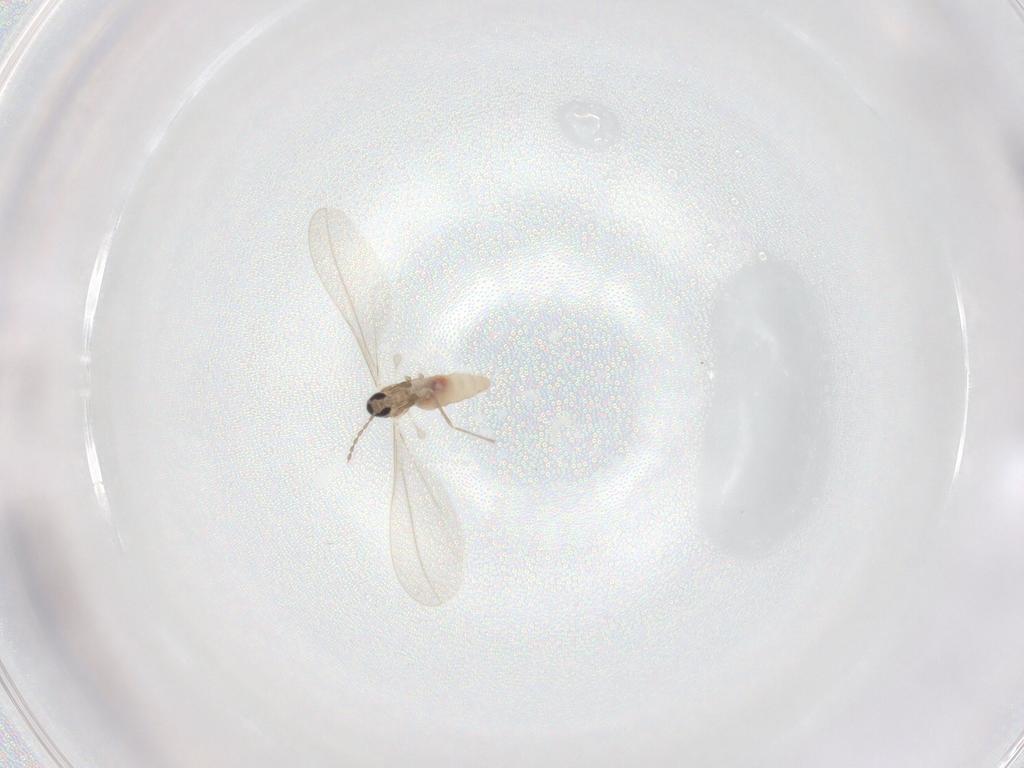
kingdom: Animalia
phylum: Arthropoda
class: Insecta
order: Diptera
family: Cecidomyiidae
